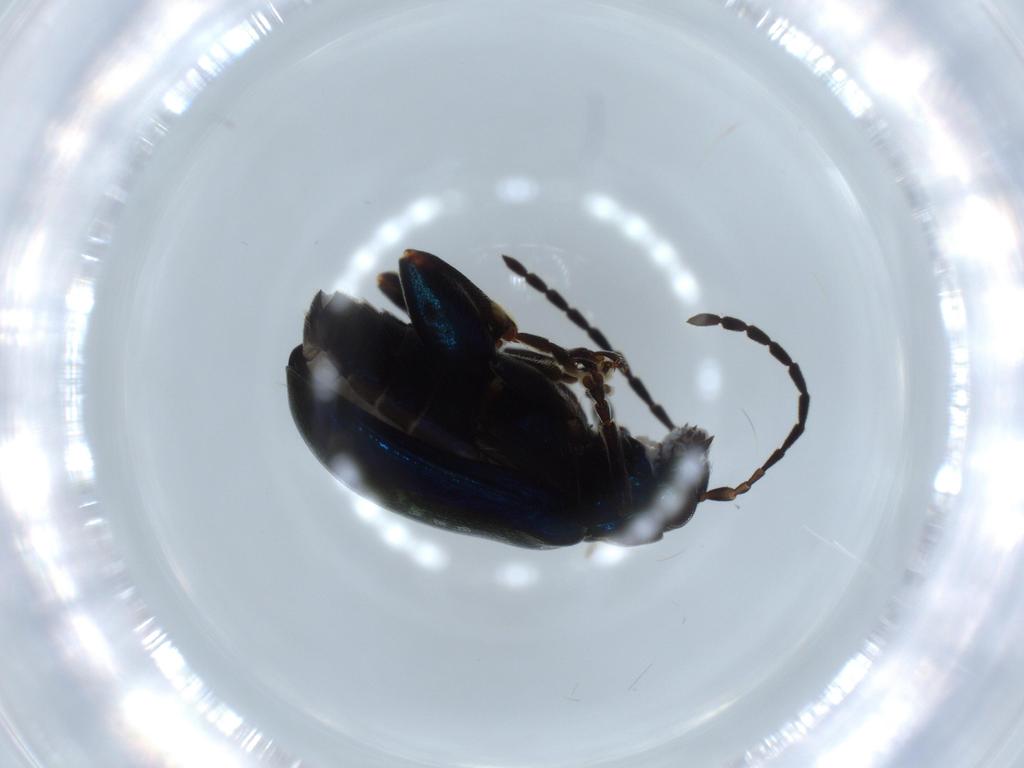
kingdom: Animalia
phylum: Arthropoda
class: Insecta
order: Coleoptera
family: Chrysomelidae
